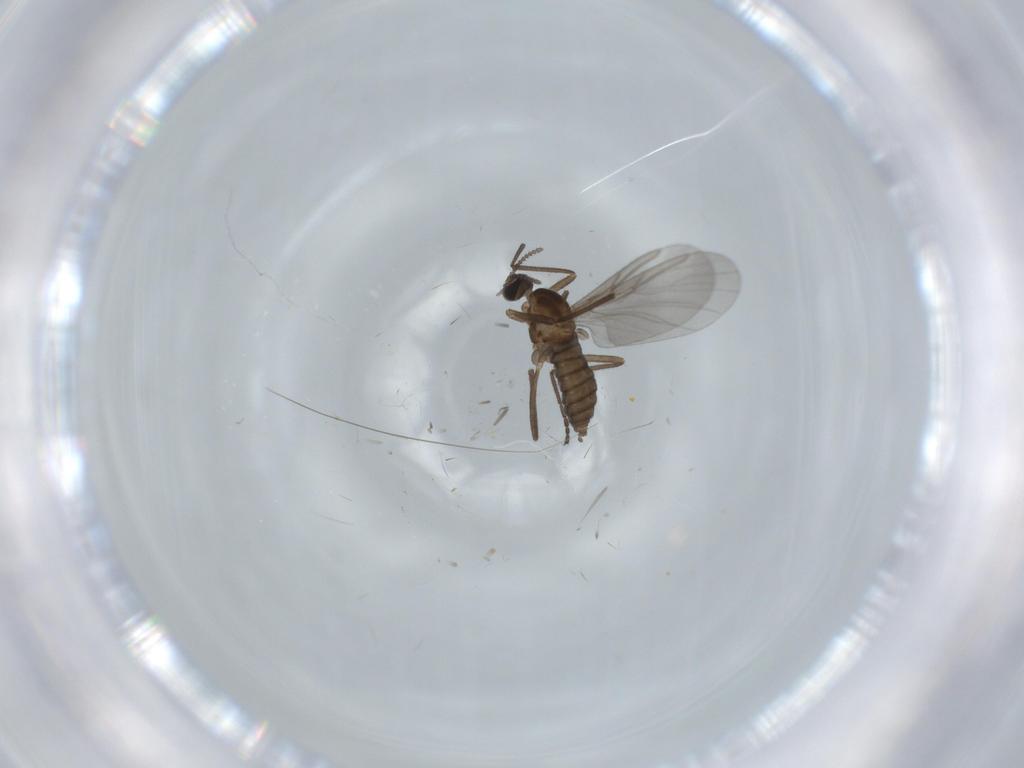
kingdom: Animalia
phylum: Arthropoda
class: Insecta
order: Diptera
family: Cecidomyiidae
